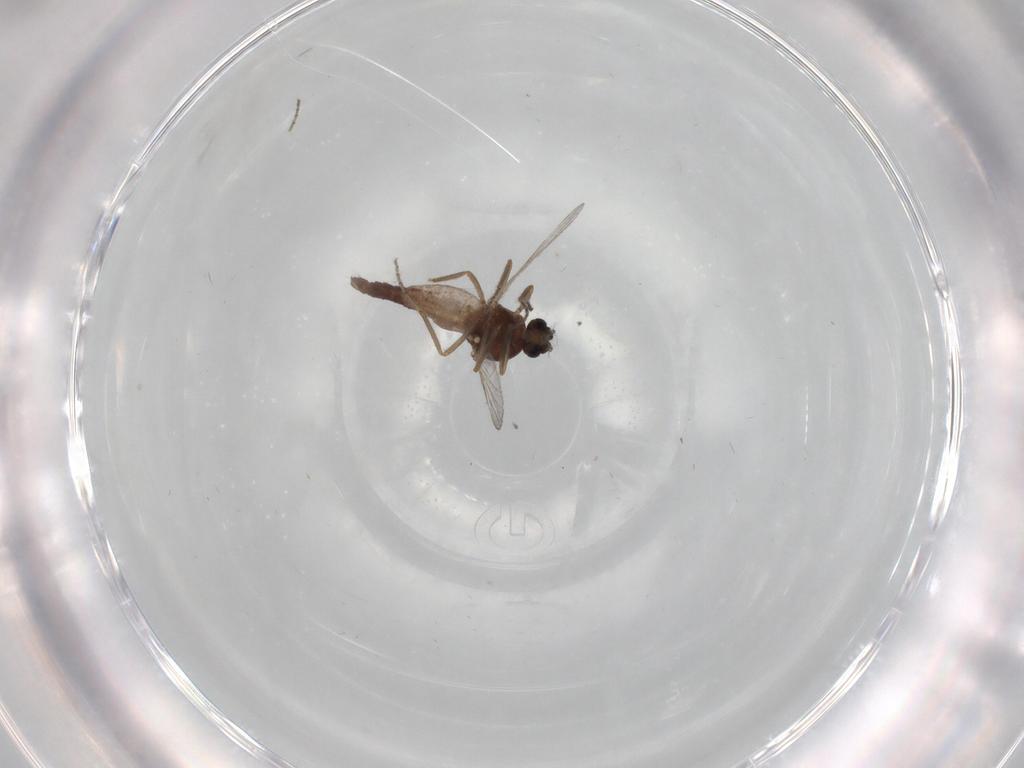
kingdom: Animalia
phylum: Arthropoda
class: Insecta
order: Diptera
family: Ceratopogonidae
